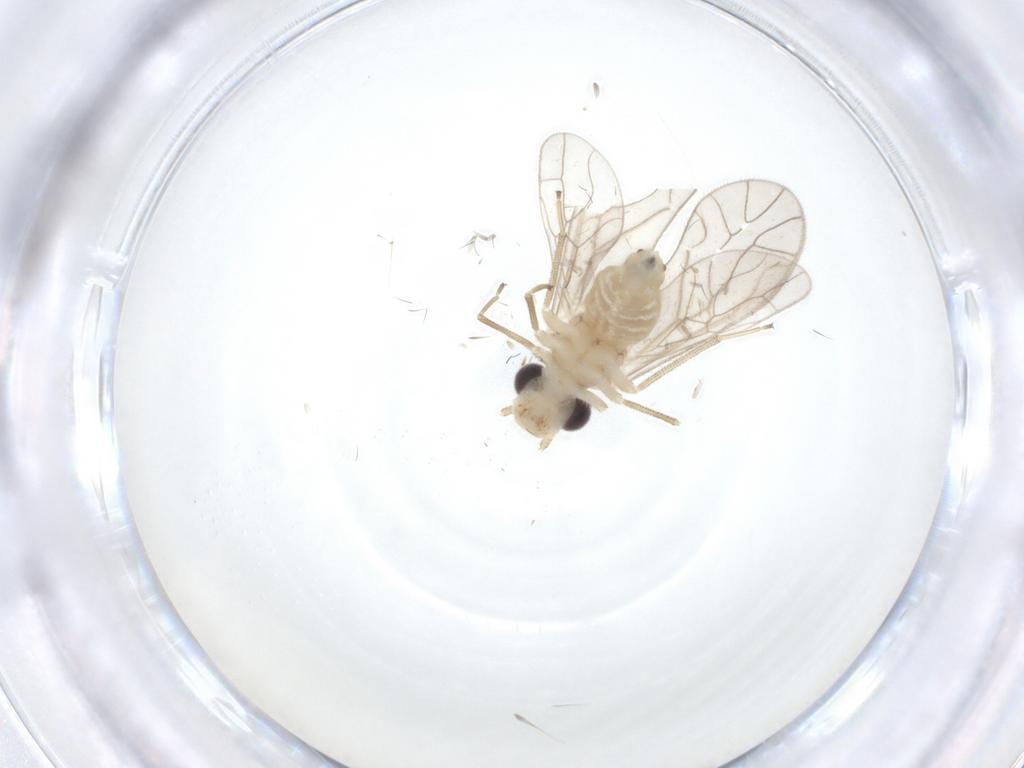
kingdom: Animalia
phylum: Arthropoda
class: Insecta
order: Psocodea
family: Caeciliusidae
